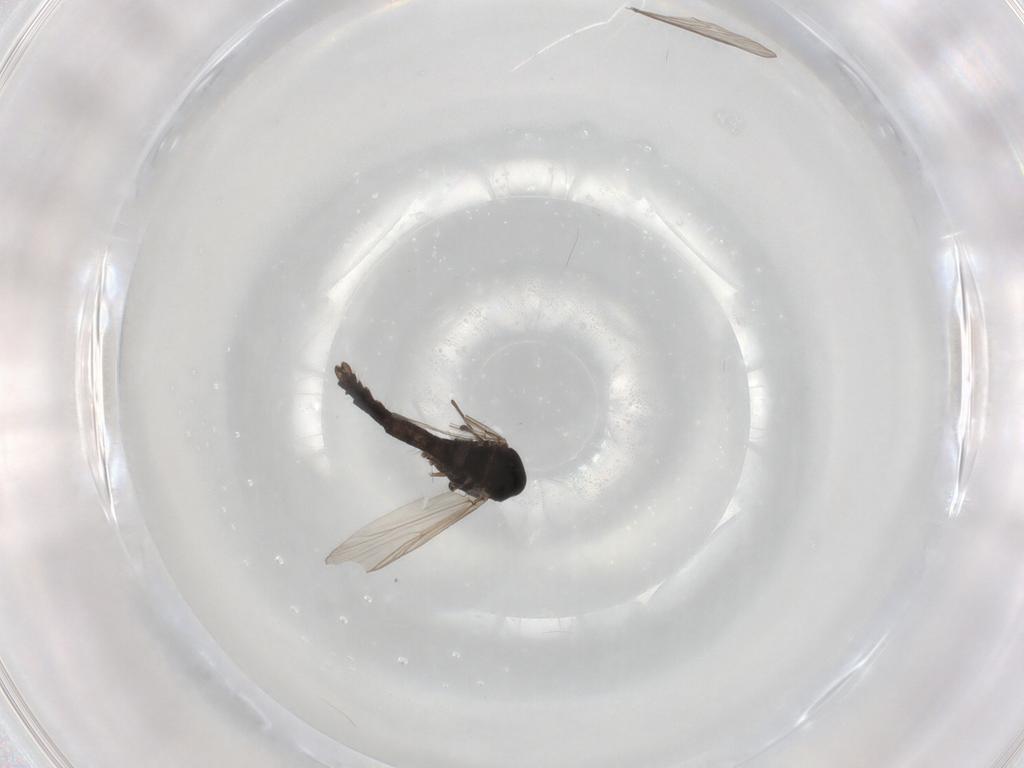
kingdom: Animalia
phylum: Arthropoda
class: Insecta
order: Diptera
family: Chironomidae
